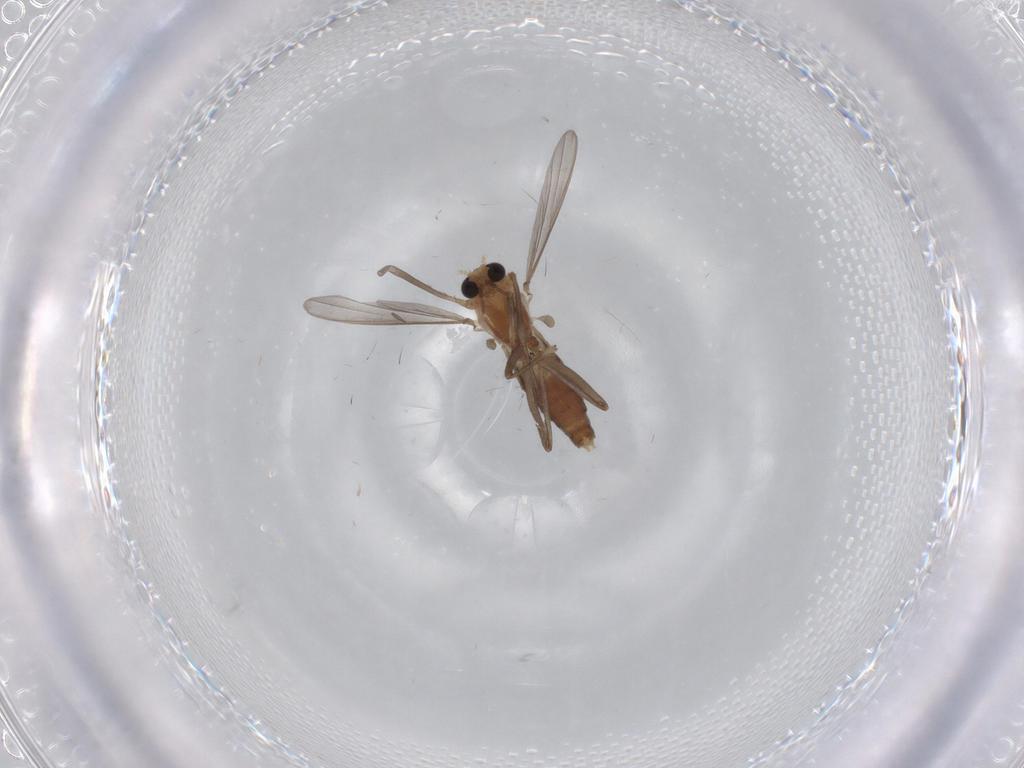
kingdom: Animalia
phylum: Arthropoda
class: Insecta
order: Diptera
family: Chironomidae
